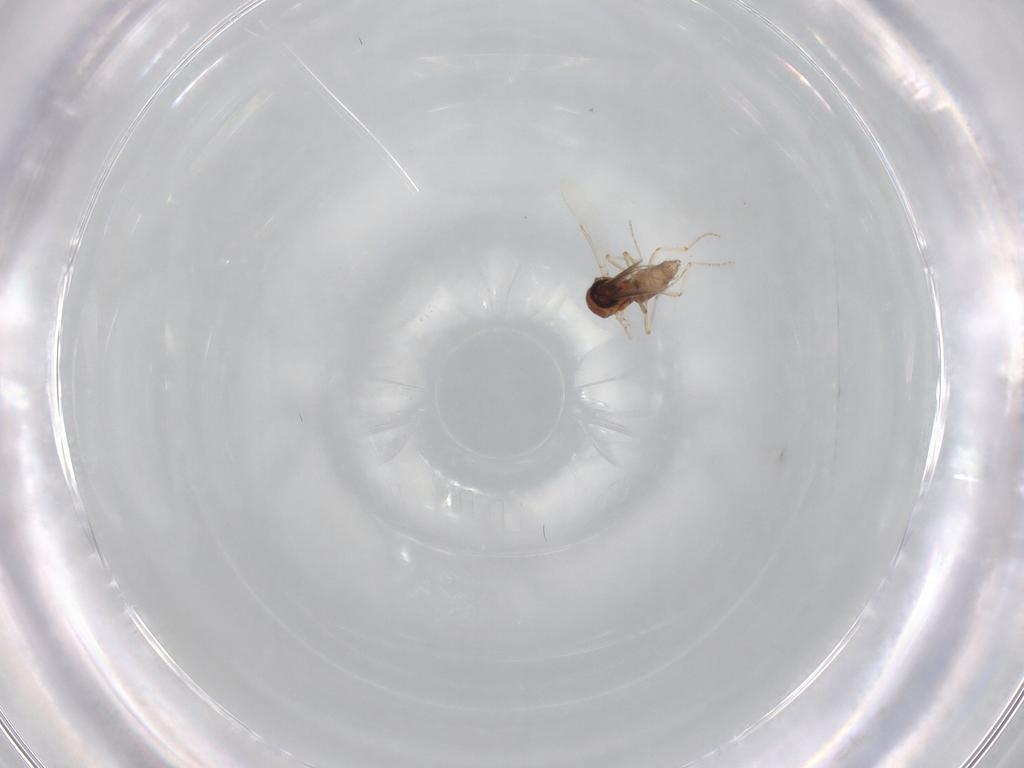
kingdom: Animalia
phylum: Arthropoda
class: Insecta
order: Diptera
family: Ceratopogonidae
